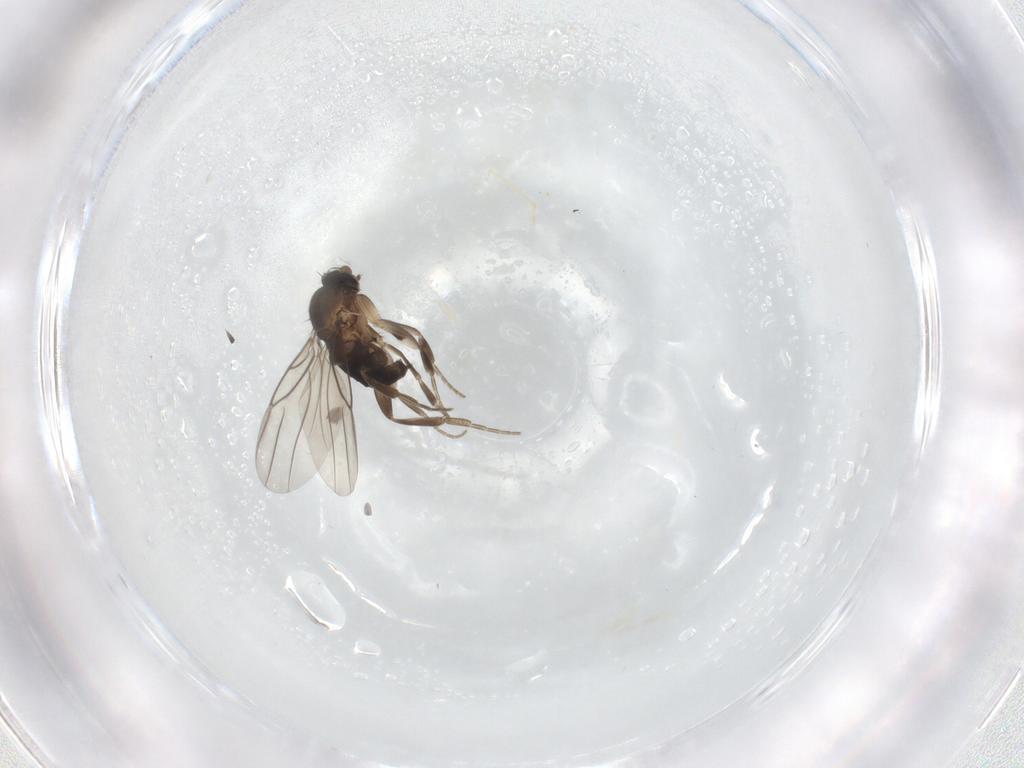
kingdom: Animalia
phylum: Arthropoda
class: Insecta
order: Diptera
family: Phoridae
